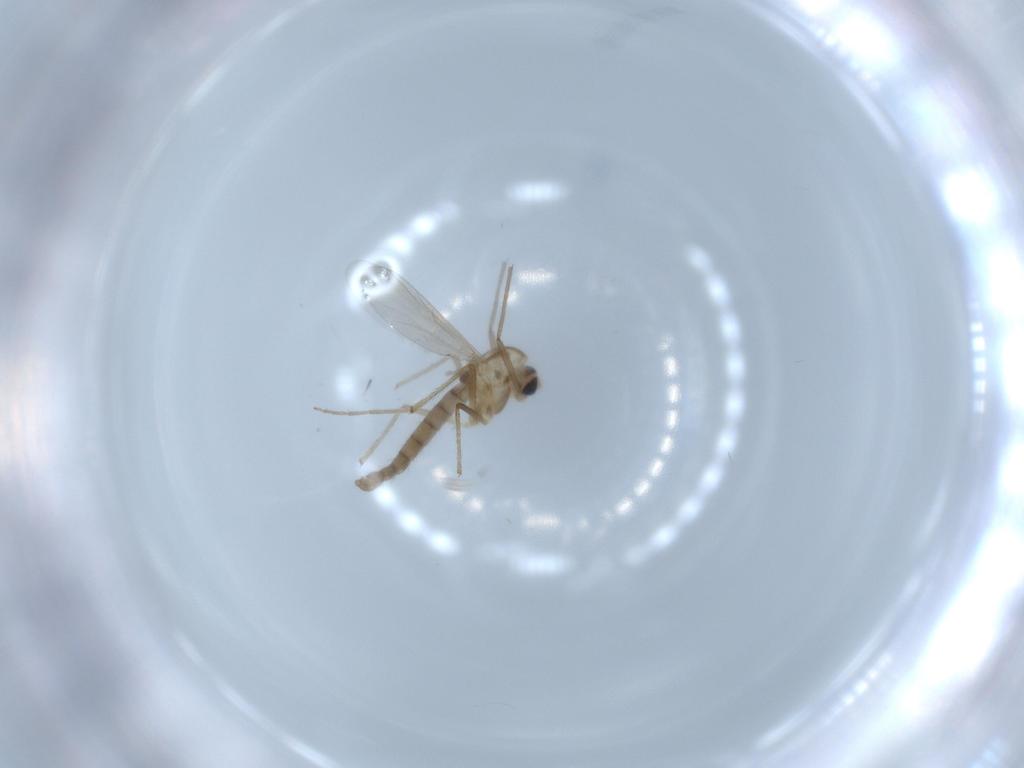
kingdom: Animalia
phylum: Arthropoda
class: Insecta
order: Diptera
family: Chironomidae
